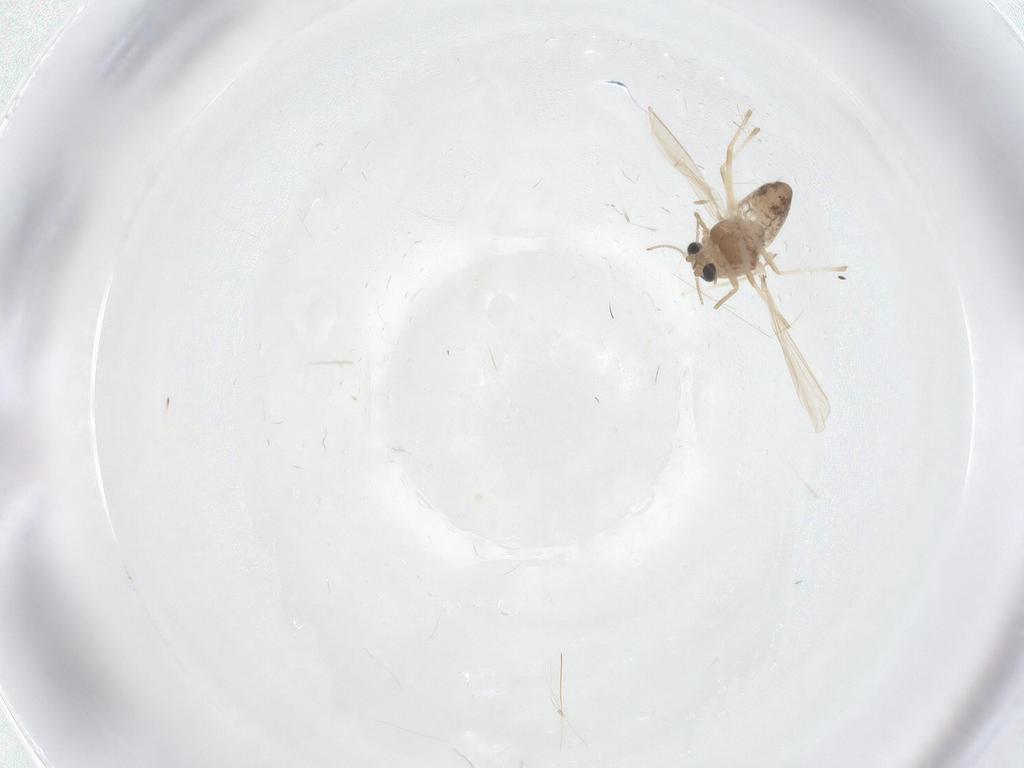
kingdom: Animalia
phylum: Arthropoda
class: Insecta
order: Diptera
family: Chironomidae
